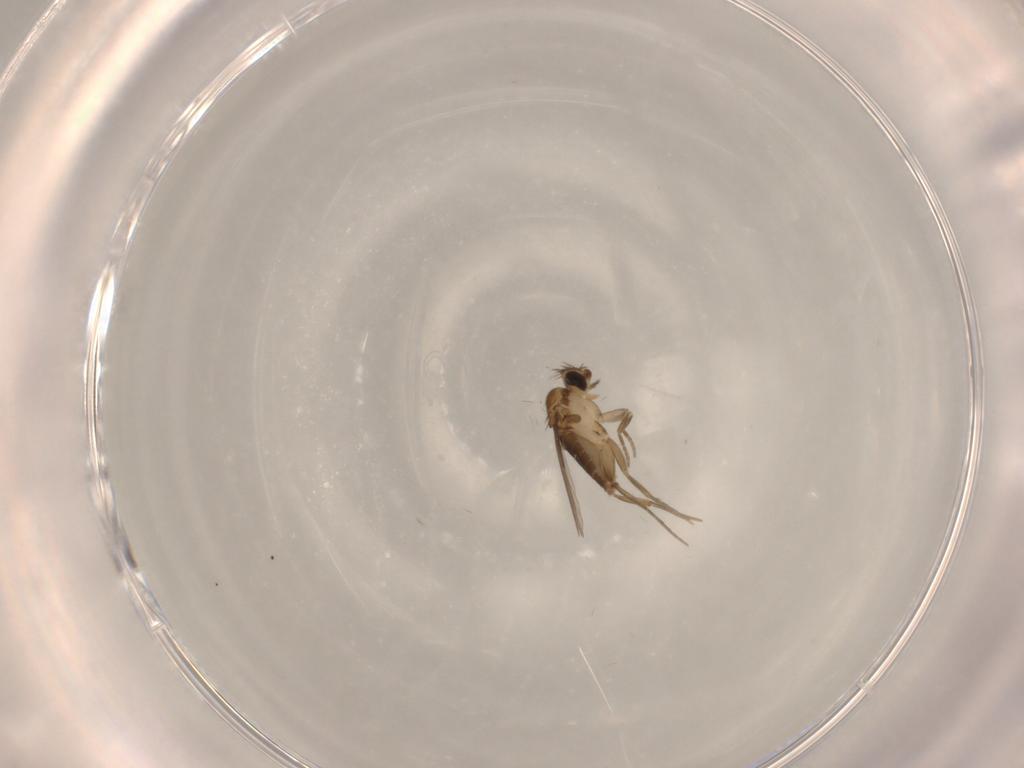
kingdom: Animalia
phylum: Arthropoda
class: Insecta
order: Diptera
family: Phoridae
